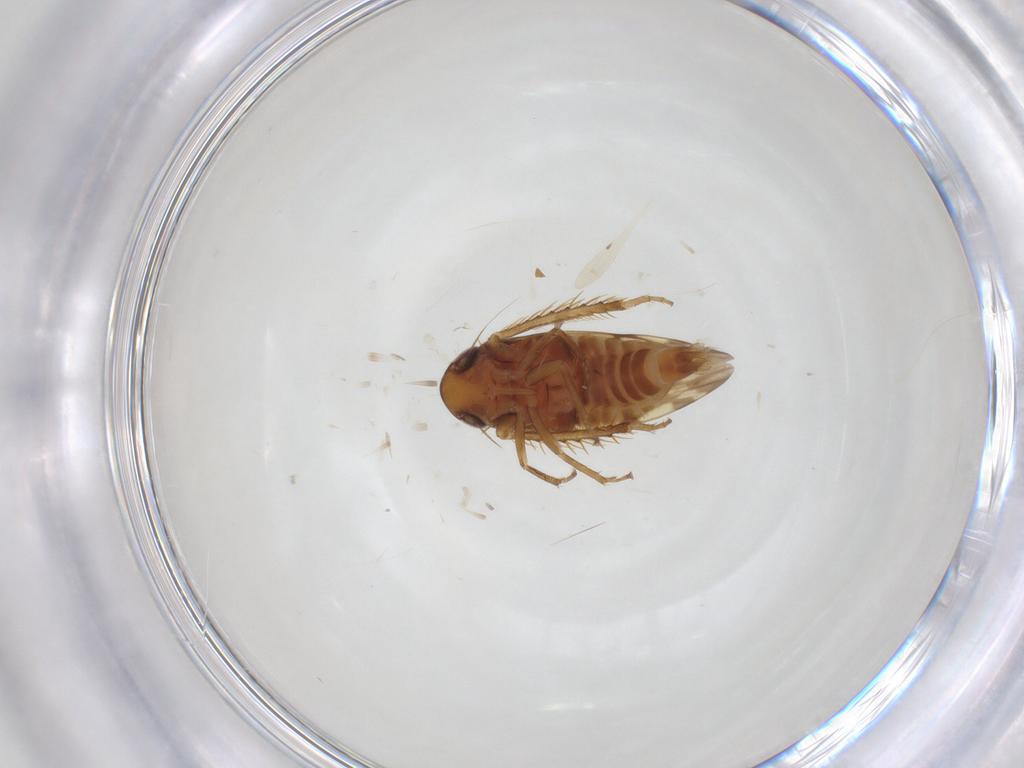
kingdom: Animalia
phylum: Arthropoda
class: Insecta
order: Hemiptera
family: Cicadellidae
